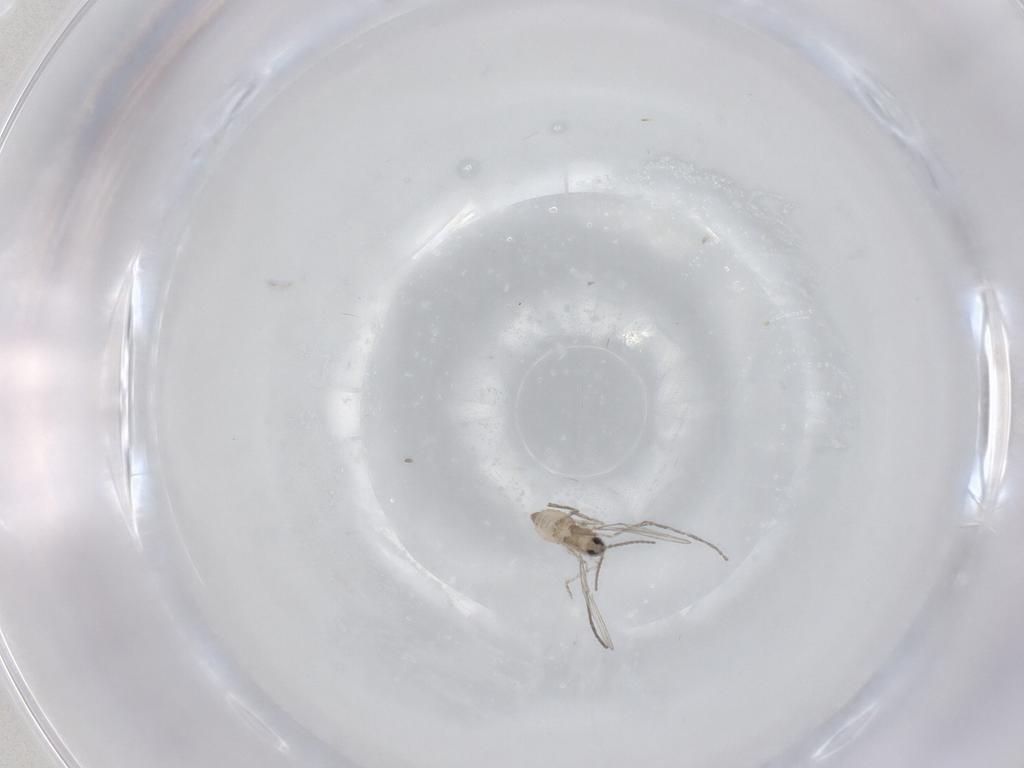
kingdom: Animalia
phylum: Arthropoda
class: Insecta
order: Diptera
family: Cecidomyiidae
